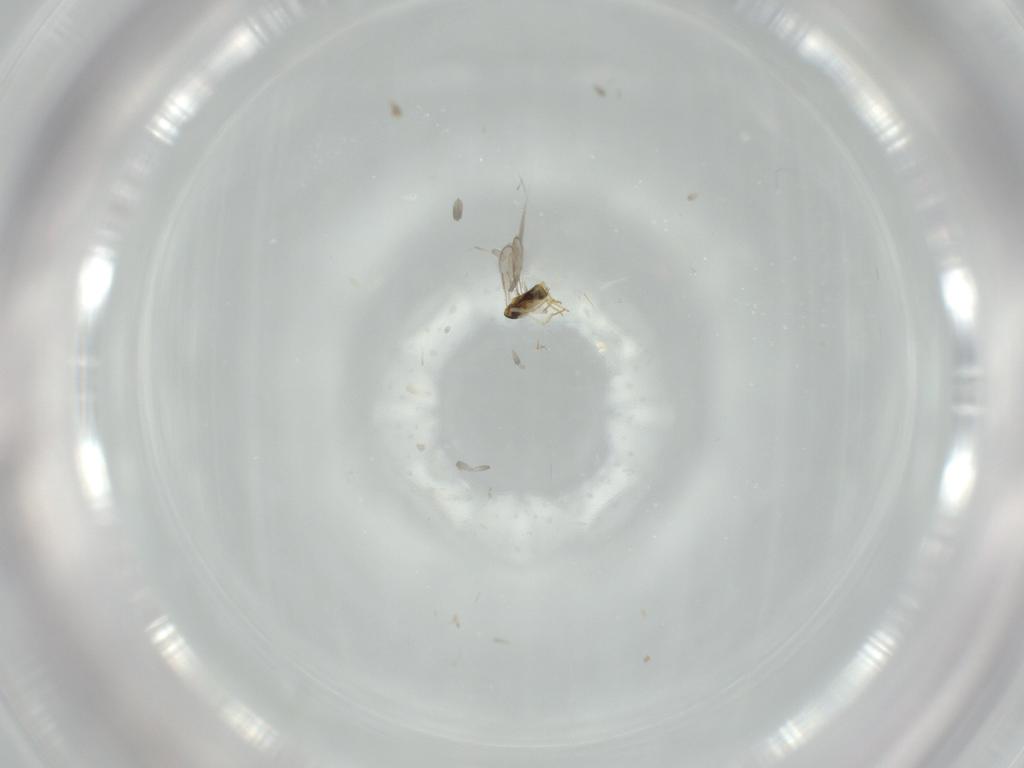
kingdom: Animalia
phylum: Arthropoda
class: Insecta
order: Hymenoptera
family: Aphelinidae
